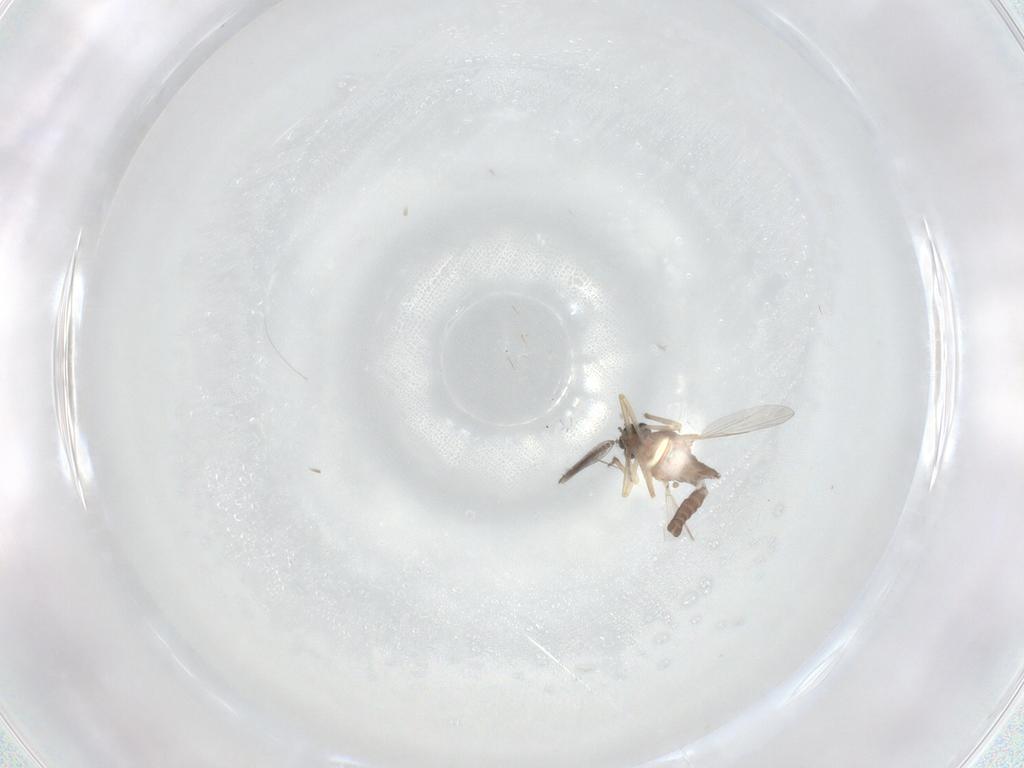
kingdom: Animalia
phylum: Arthropoda
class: Insecta
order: Diptera
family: Ceratopogonidae
